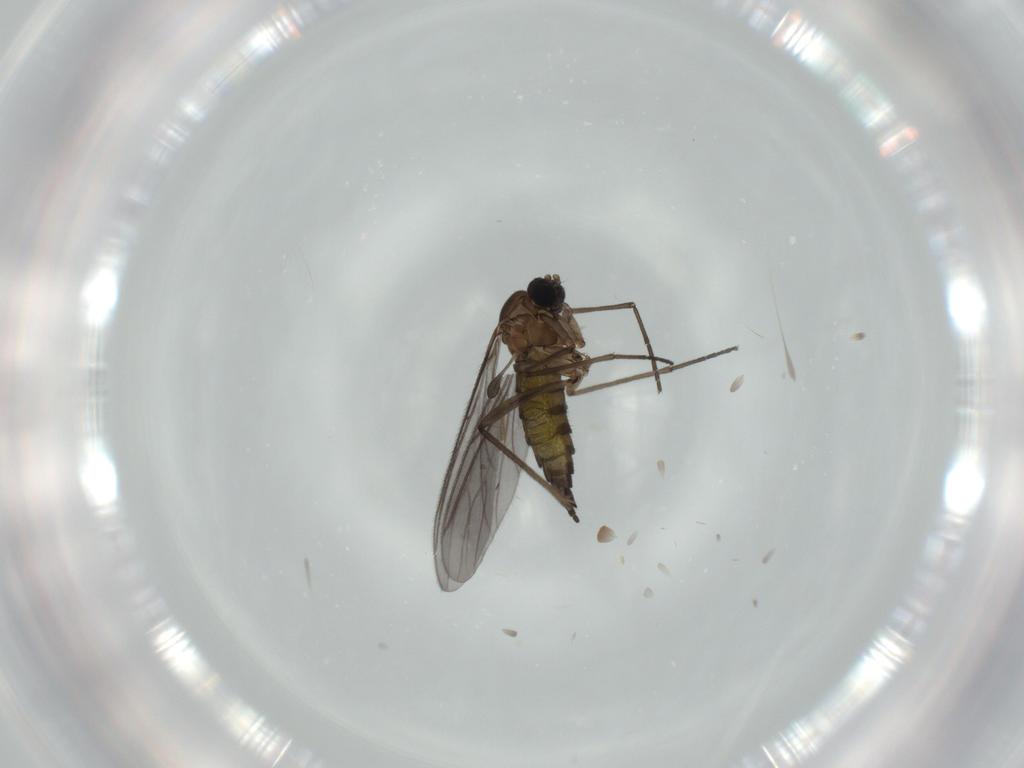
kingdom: Animalia
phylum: Arthropoda
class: Insecta
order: Diptera
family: Sciaridae
